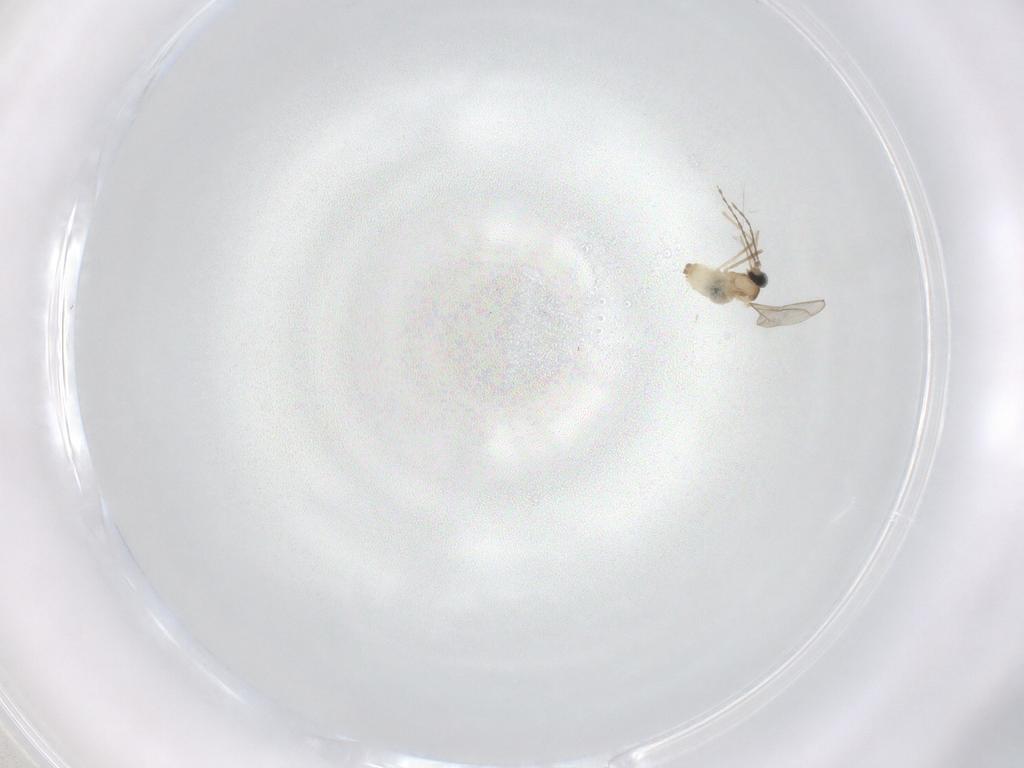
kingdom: Animalia
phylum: Arthropoda
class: Insecta
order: Diptera
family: Cecidomyiidae
